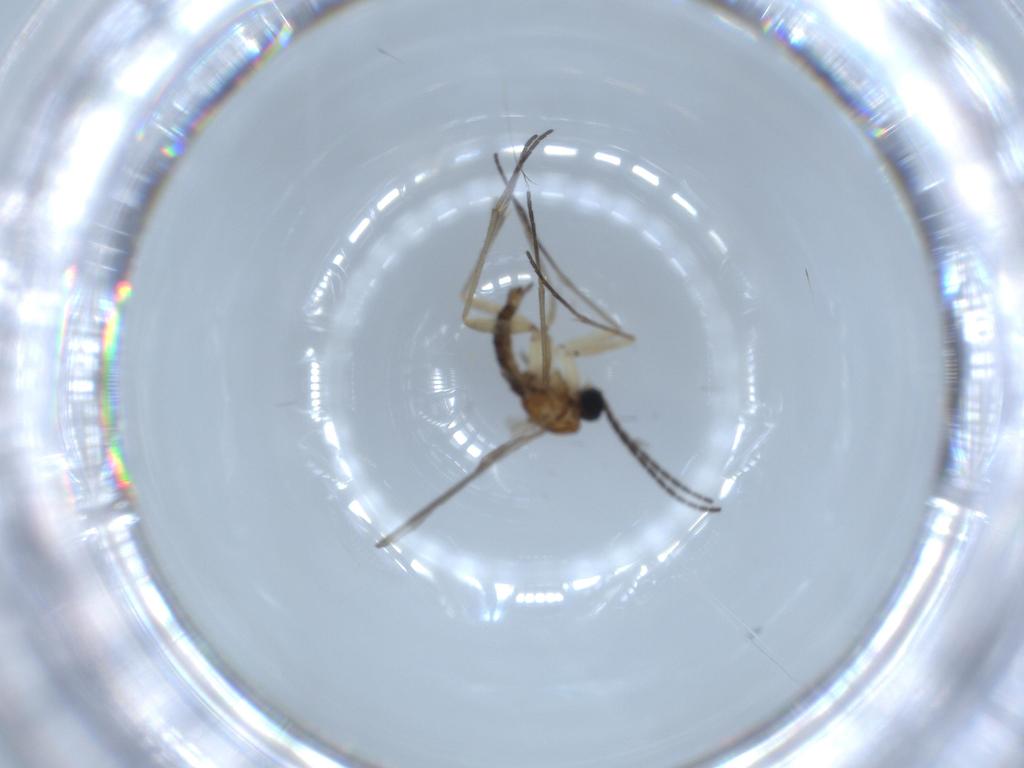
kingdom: Animalia
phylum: Arthropoda
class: Insecta
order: Diptera
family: Sciaridae
